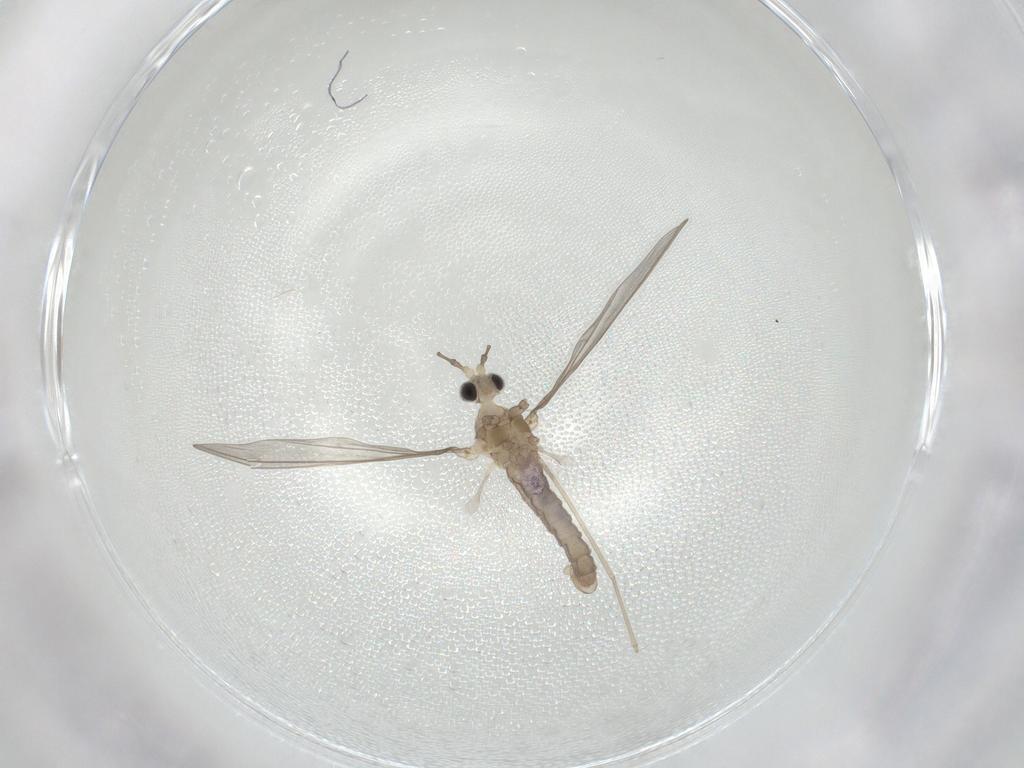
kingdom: Animalia
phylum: Arthropoda
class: Insecta
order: Diptera
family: Cecidomyiidae
